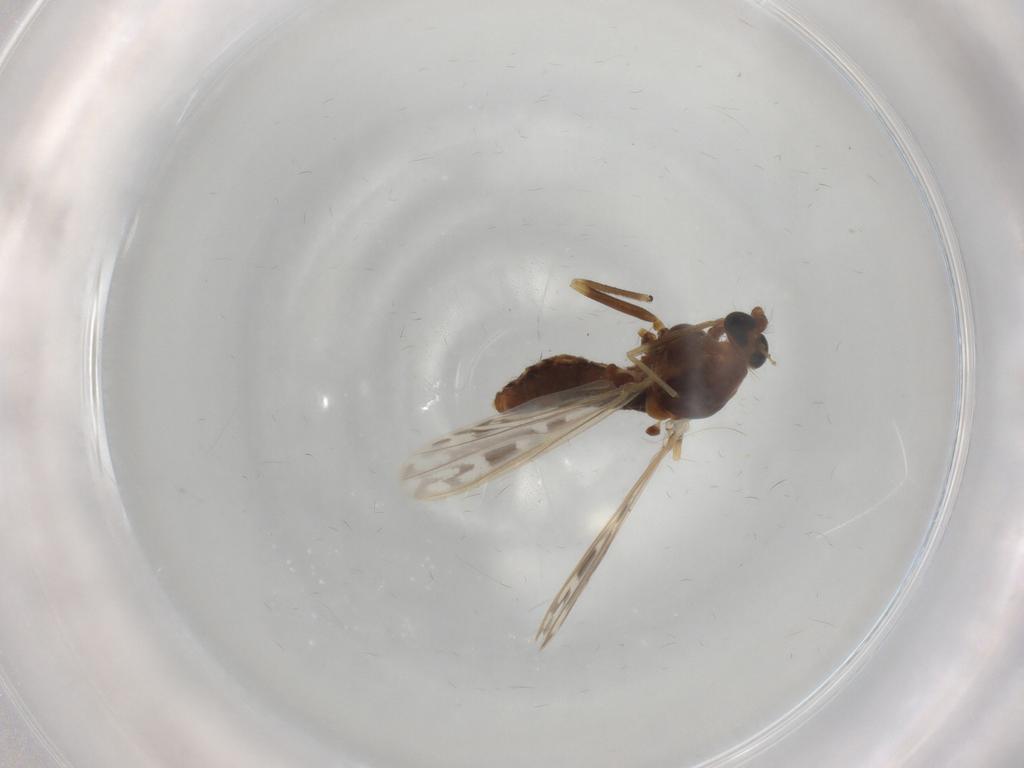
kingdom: Animalia
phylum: Arthropoda
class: Insecta
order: Diptera
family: Chironomidae
